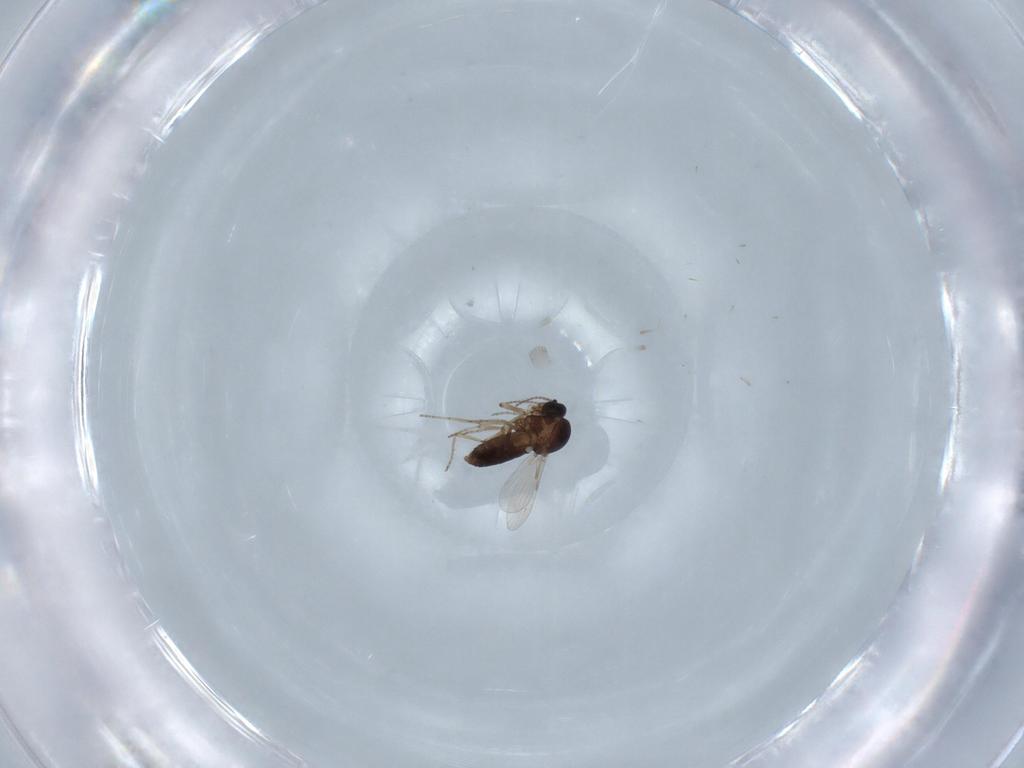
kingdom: Animalia
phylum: Arthropoda
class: Insecta
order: Diptera
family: Ceratopogonidae
